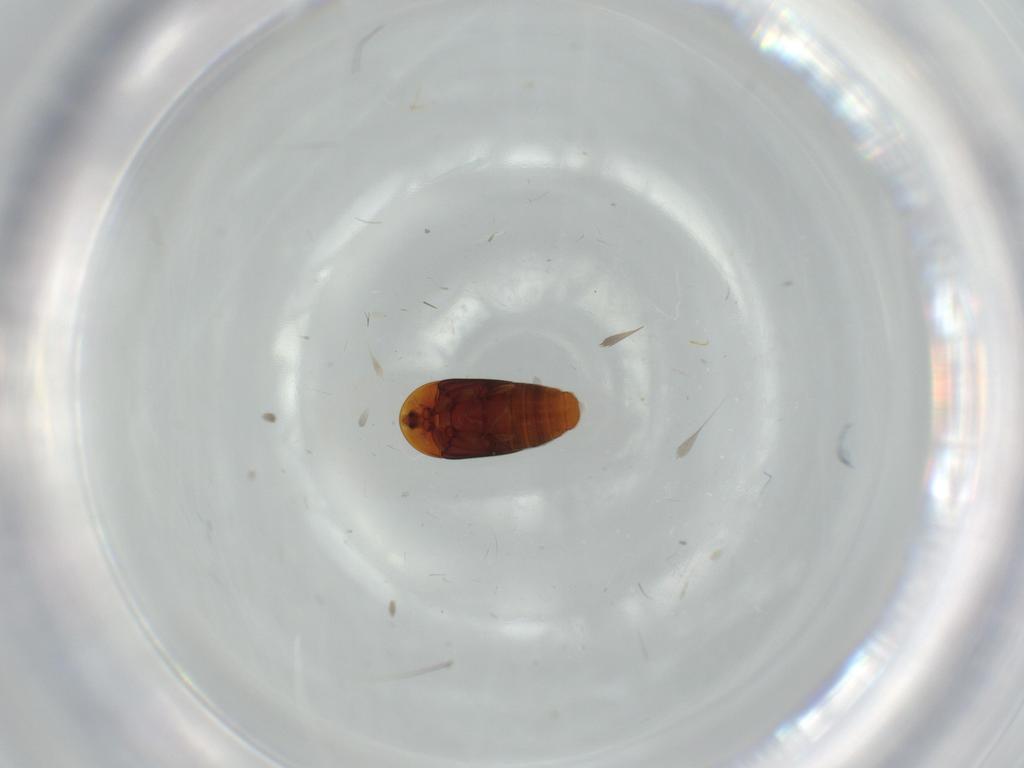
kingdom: Animalia
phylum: Arthropoda
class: Insecta
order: Coleoptera
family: Corylophidae
